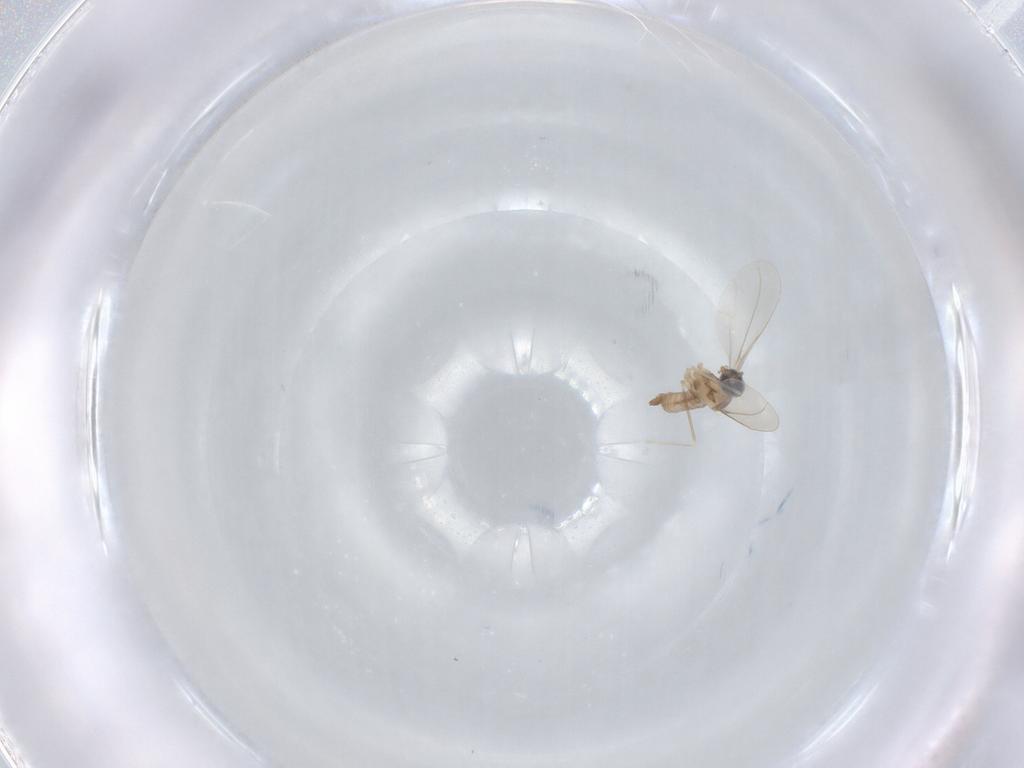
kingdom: Animalia
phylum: Arthropoda
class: Insecta
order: Diptera
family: Cecidomyiidae
